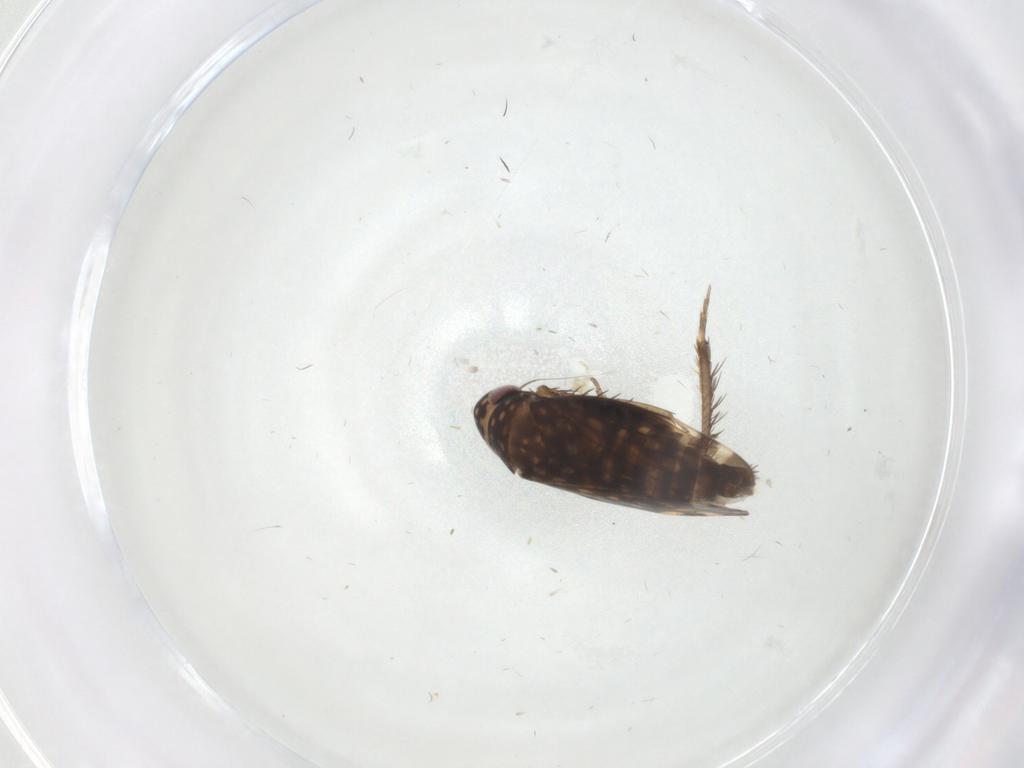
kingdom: Animalia
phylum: Arthropoda
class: Insecta
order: Hemiptera
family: Cicadellidae
